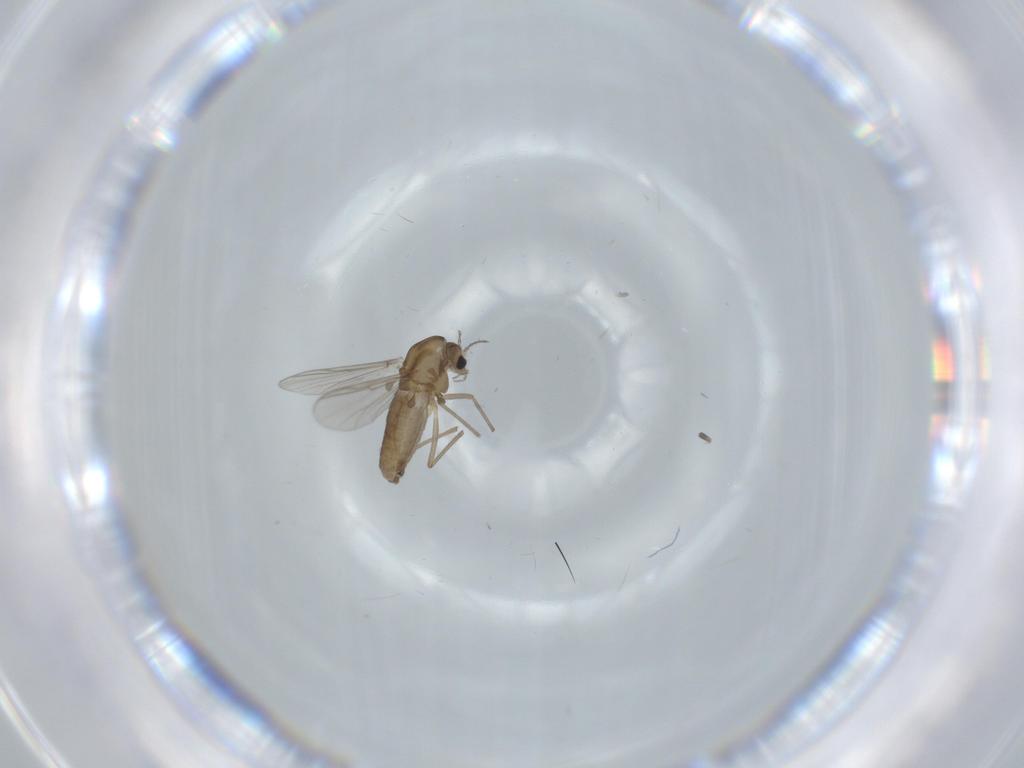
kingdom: Animalia
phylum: Arthropoda
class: Insecta
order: Diptera
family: Chironomidae
